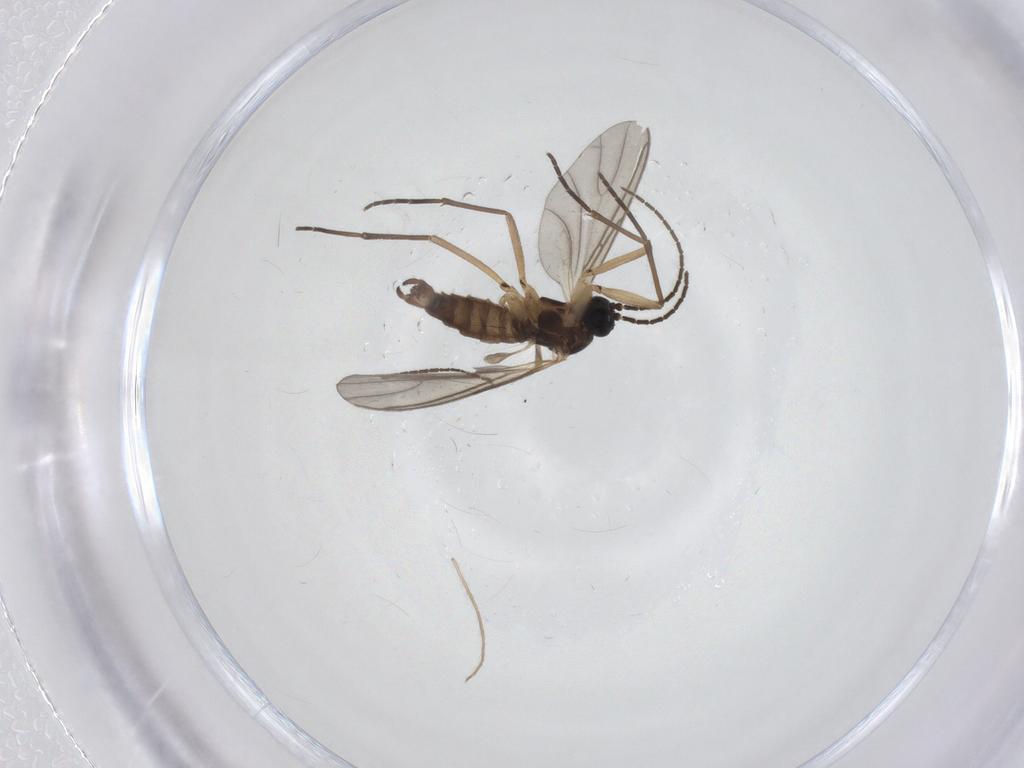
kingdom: Animalia
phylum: Arthropoda
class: Insecta
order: Diptera
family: Sciaridae
